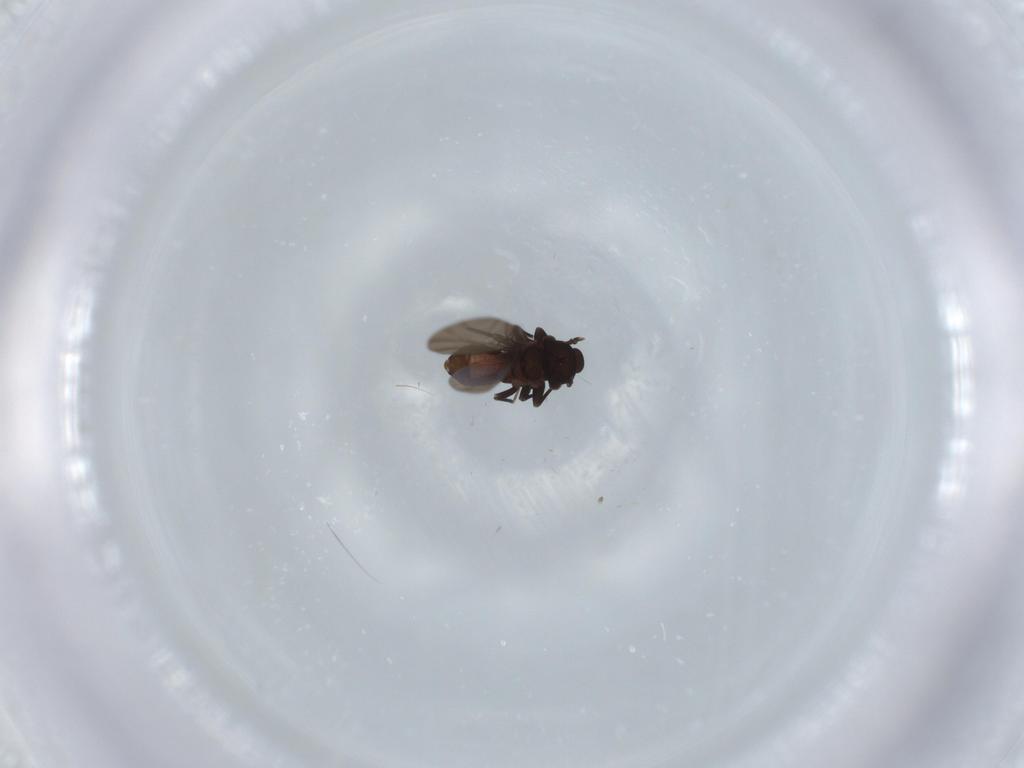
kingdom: Animalia
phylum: Arthropoda
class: Insecta
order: Psocodea
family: Lepidopsocidae
